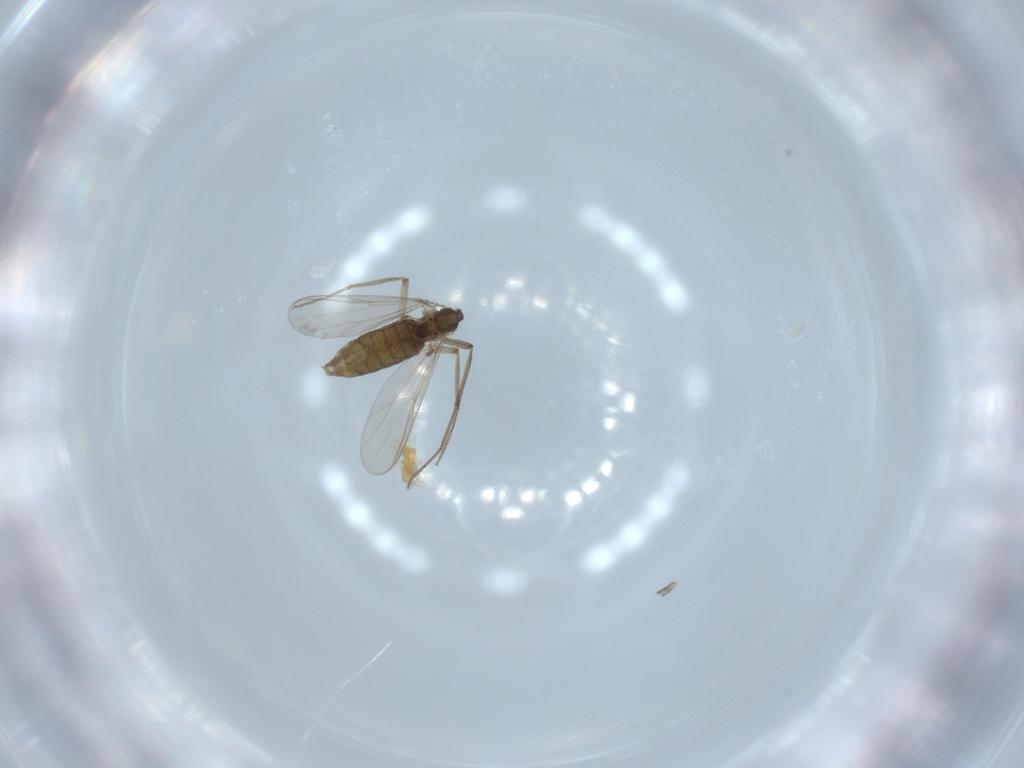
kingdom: Animalia
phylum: Arthropoda
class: Insecta
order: Diptera
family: Chironomidae
